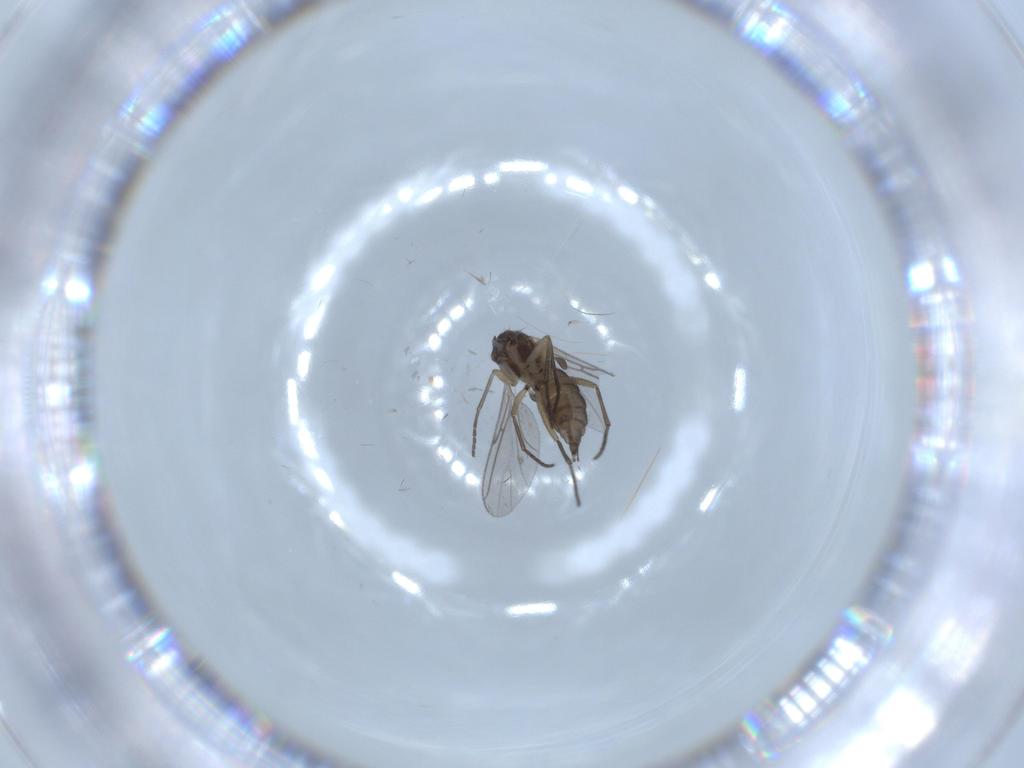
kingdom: Animalia
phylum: Arthropoda
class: Insecta
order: Diptera
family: Sciaridae
